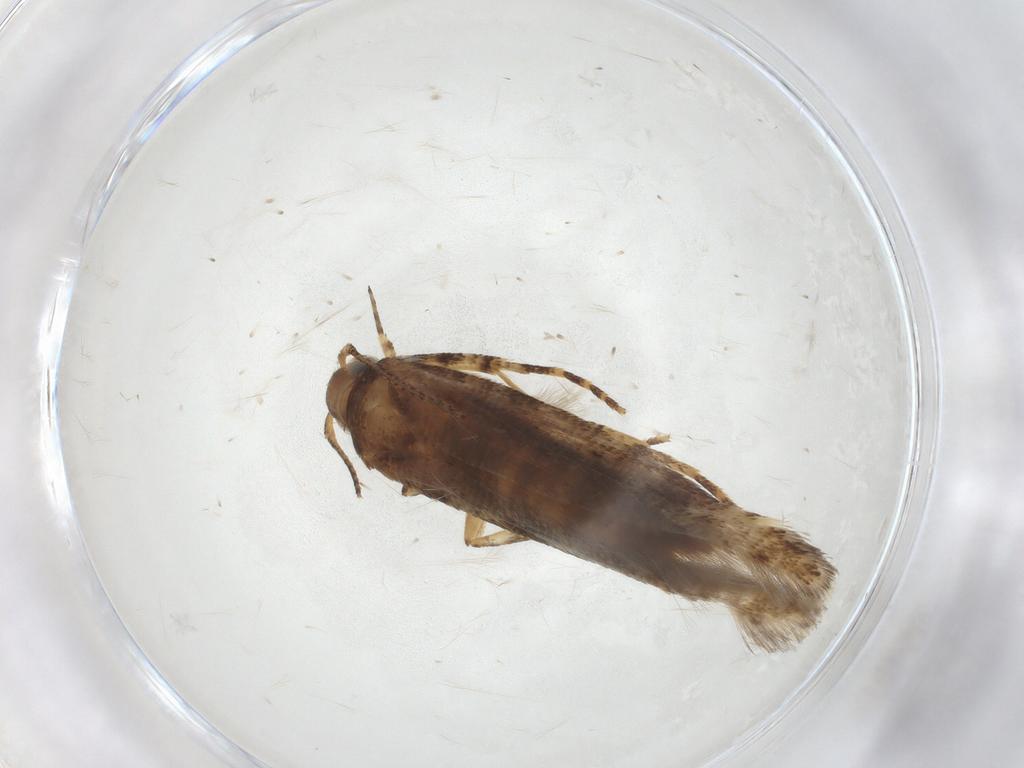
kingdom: Animalia
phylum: Arthropoda
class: Insecta
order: Lepidoptera
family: Gelechiidae
